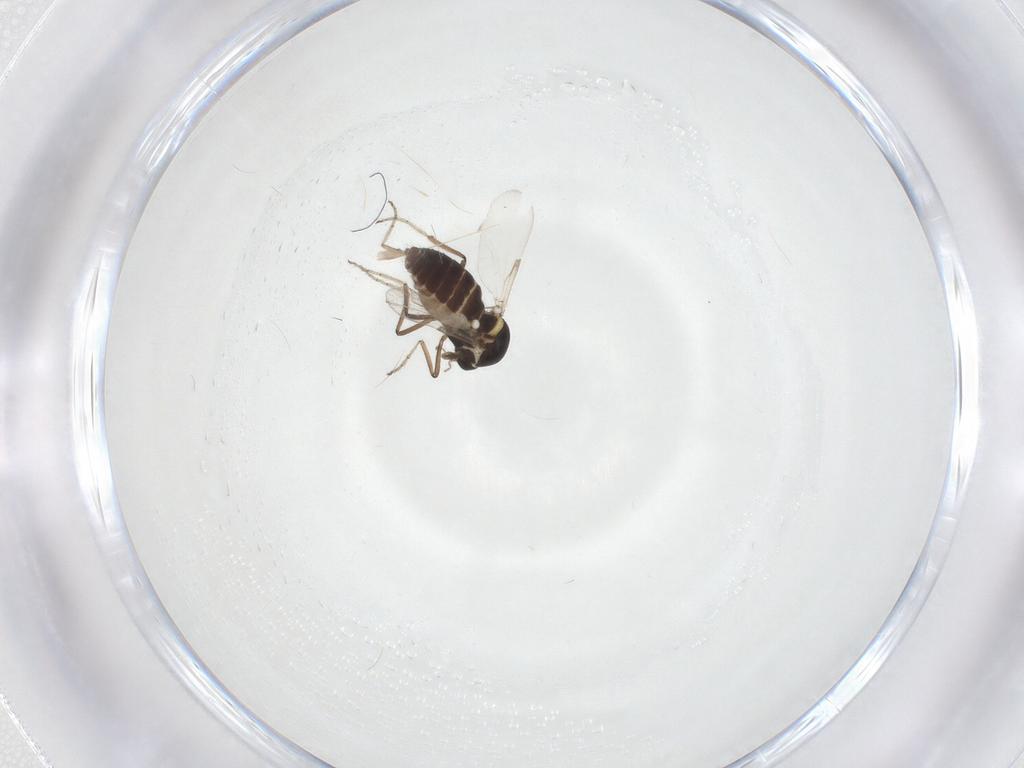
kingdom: Animalia
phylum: Arthropoda
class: Insecta
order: Diptera
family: Ceratopogonidae
